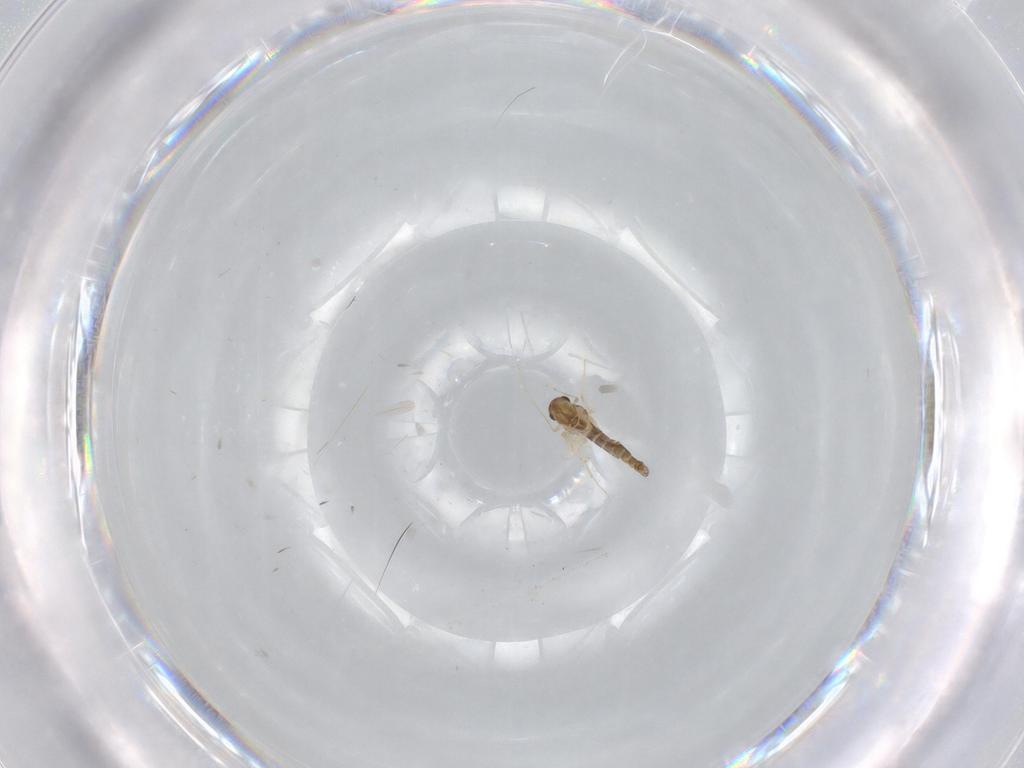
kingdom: Animalia
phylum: Arthropoda
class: Insecta
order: Diptera
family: Chironomidae
